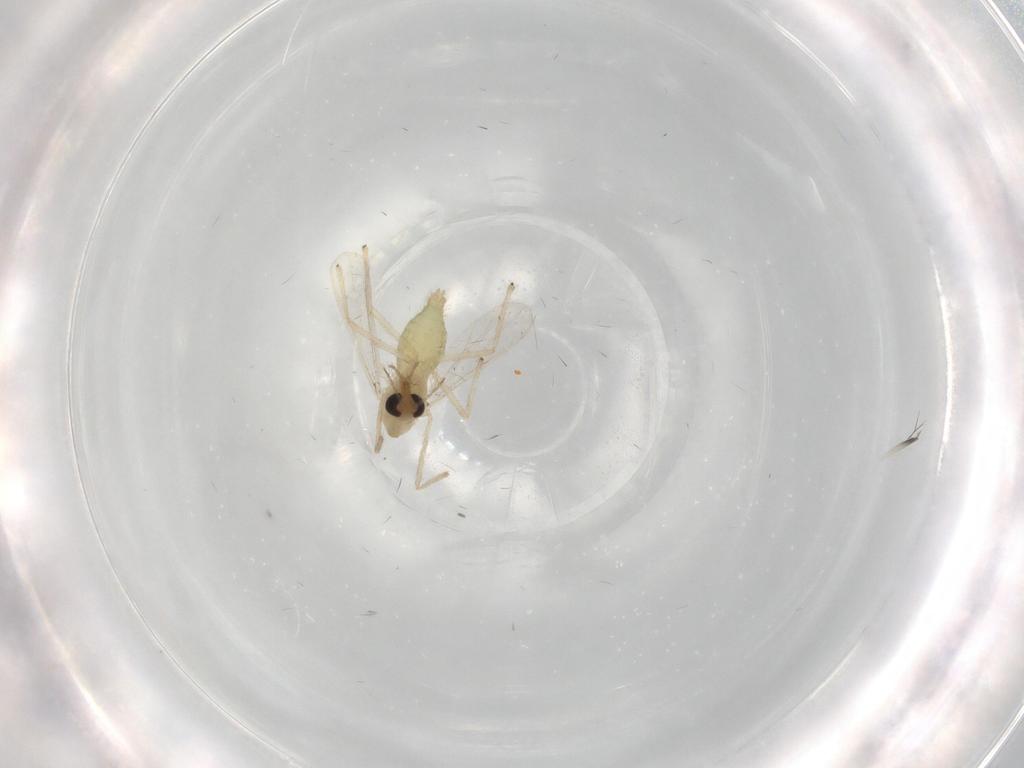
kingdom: Animalia
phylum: Arthropoda
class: Insecta
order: Diptera
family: Chironomidae
